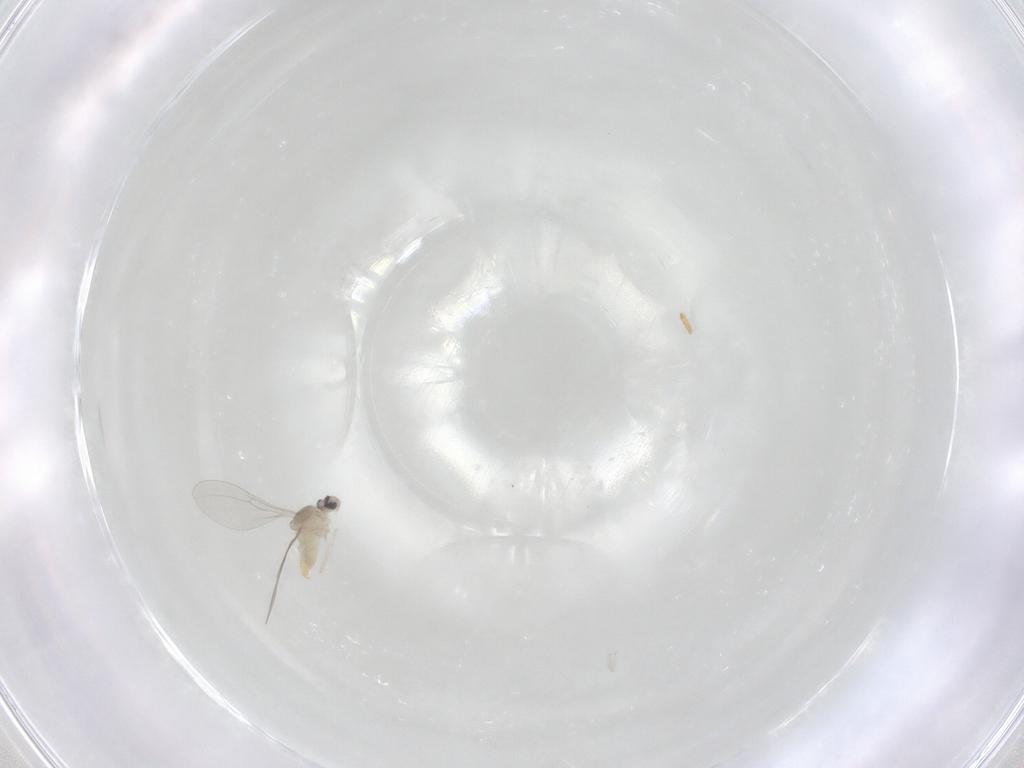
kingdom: Animalia
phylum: Arthropoda
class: Insecta
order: Diptera
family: Cecidomyiidae
